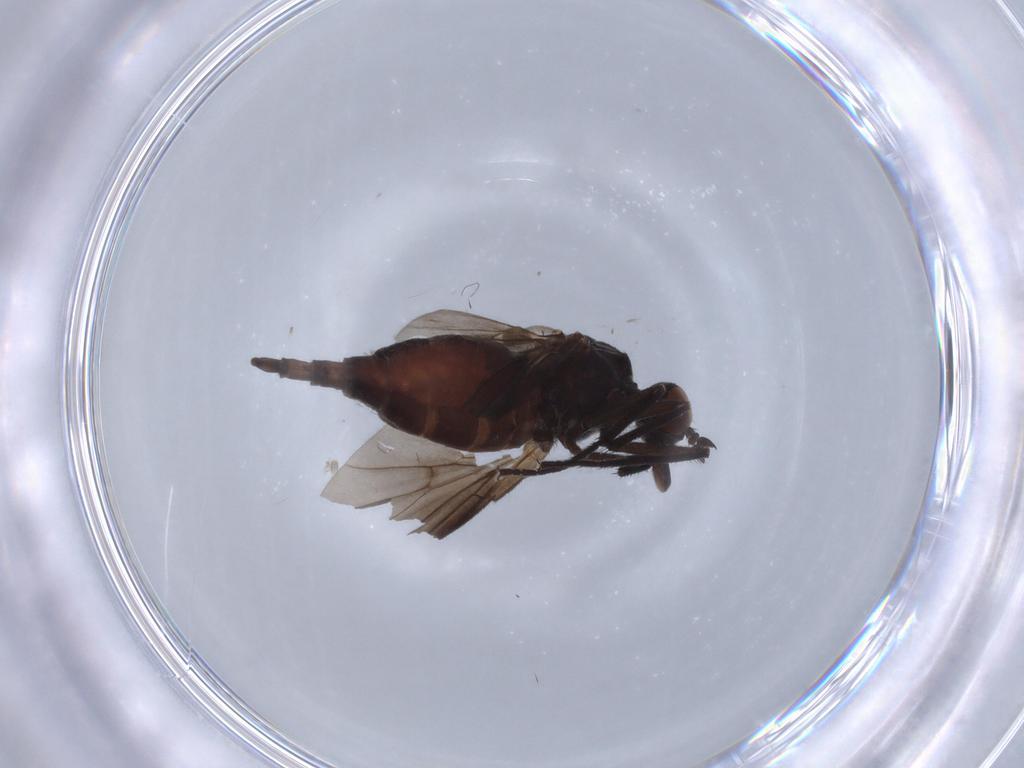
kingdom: Animalia
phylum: Arthropoda
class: Insecta
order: Diptera
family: Empididae
